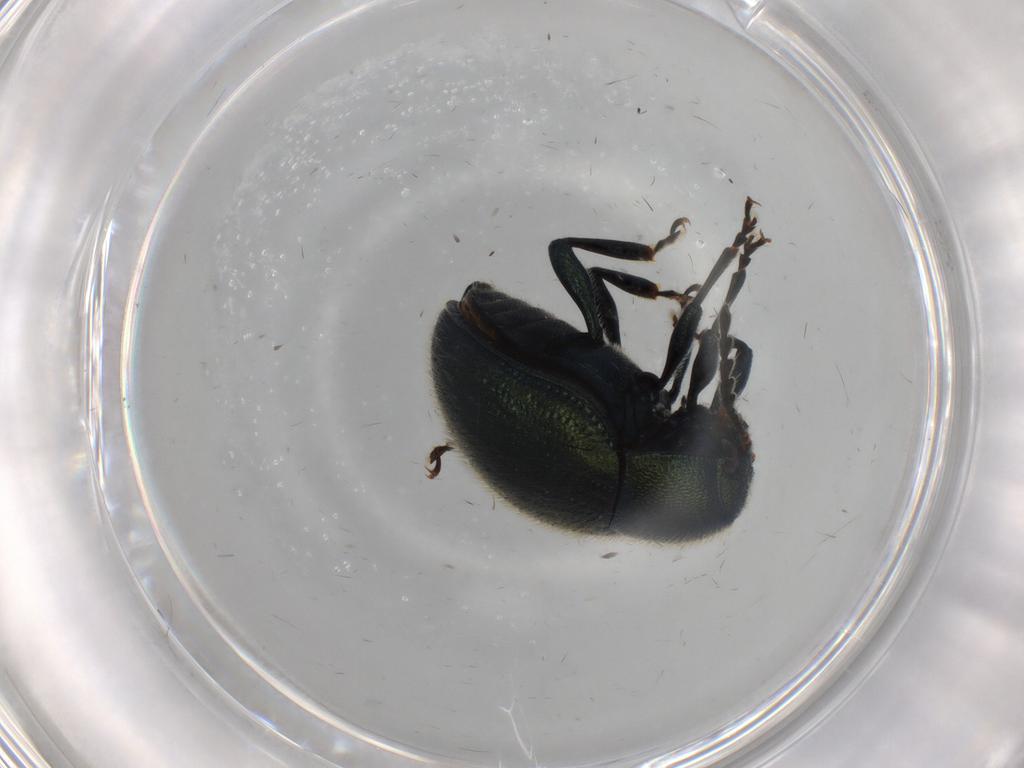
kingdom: Animalia
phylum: Arthropoda
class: Insecta
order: Coleoptera
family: Chrysomelidae
